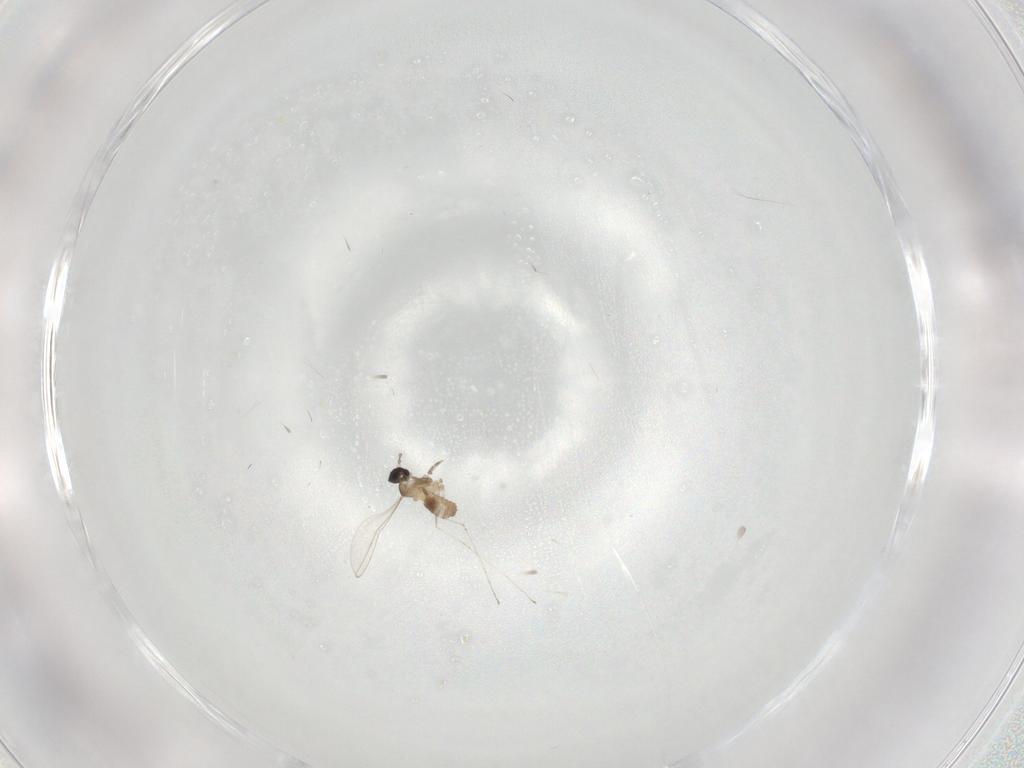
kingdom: Animalia
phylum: Arthropoda
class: Insecta
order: Diptera
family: Cecidomyiidae
